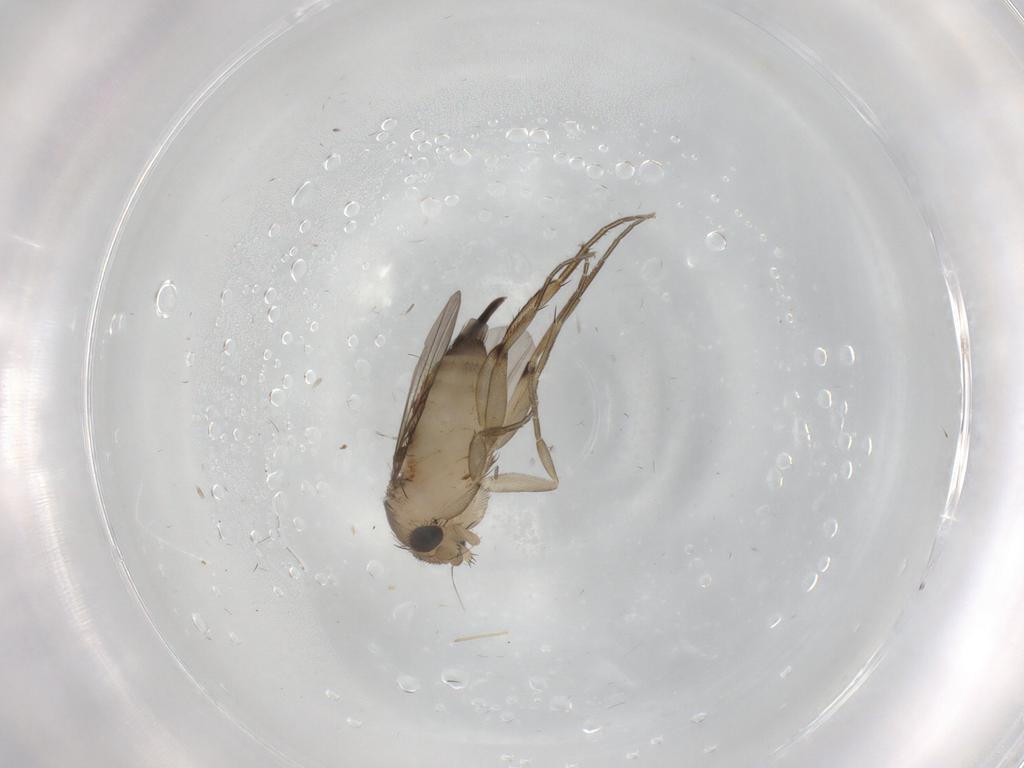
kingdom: Animalia
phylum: Arthropoda
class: Insecta
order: Diptera
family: Phoridae
